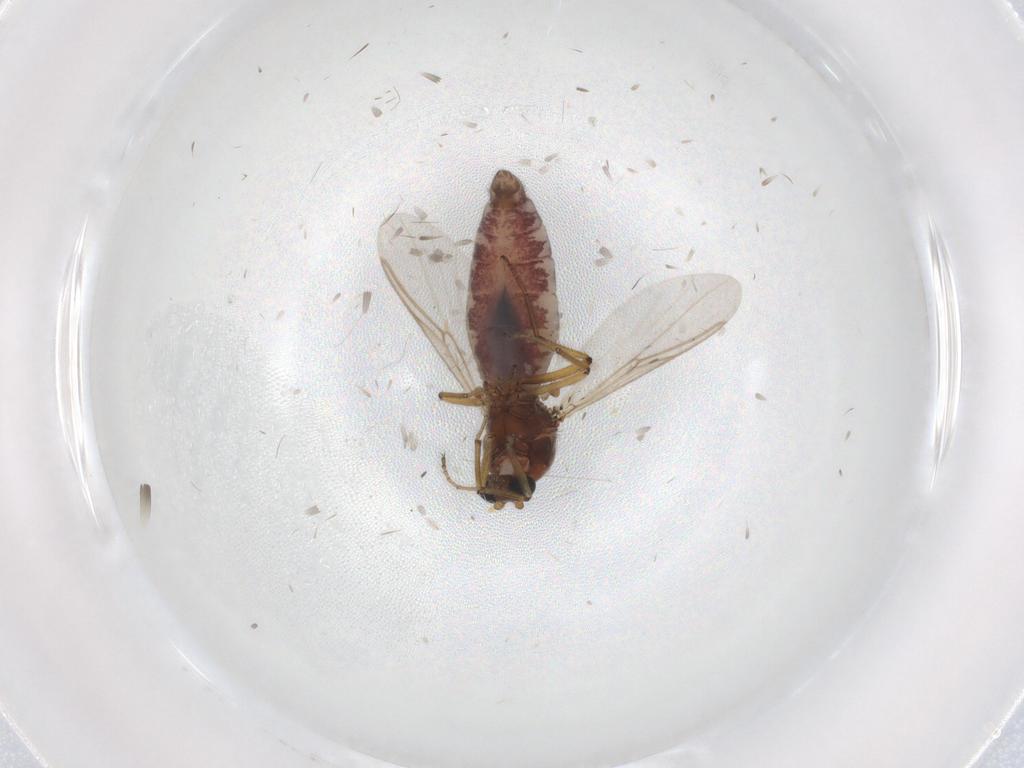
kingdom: Animalia
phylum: Arthropoda
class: Insecta
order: Diptera
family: Ceratopogonidae
